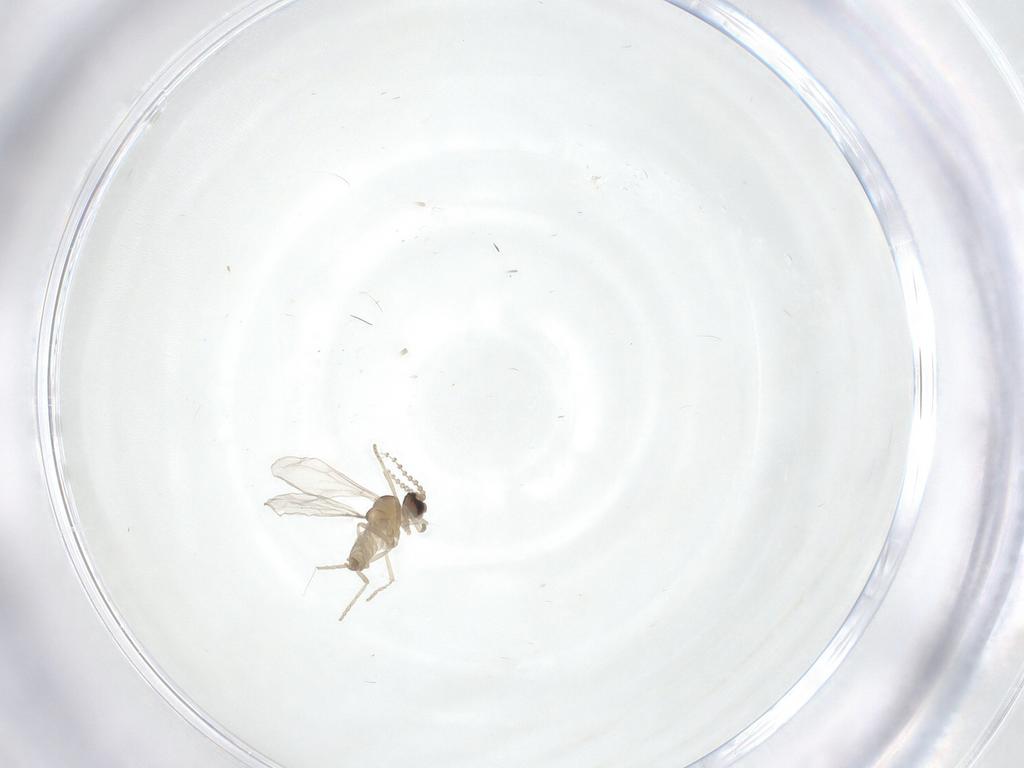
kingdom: Animalia
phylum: Arthropoda
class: Insecta
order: Diptera
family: Cecidomyiidae
